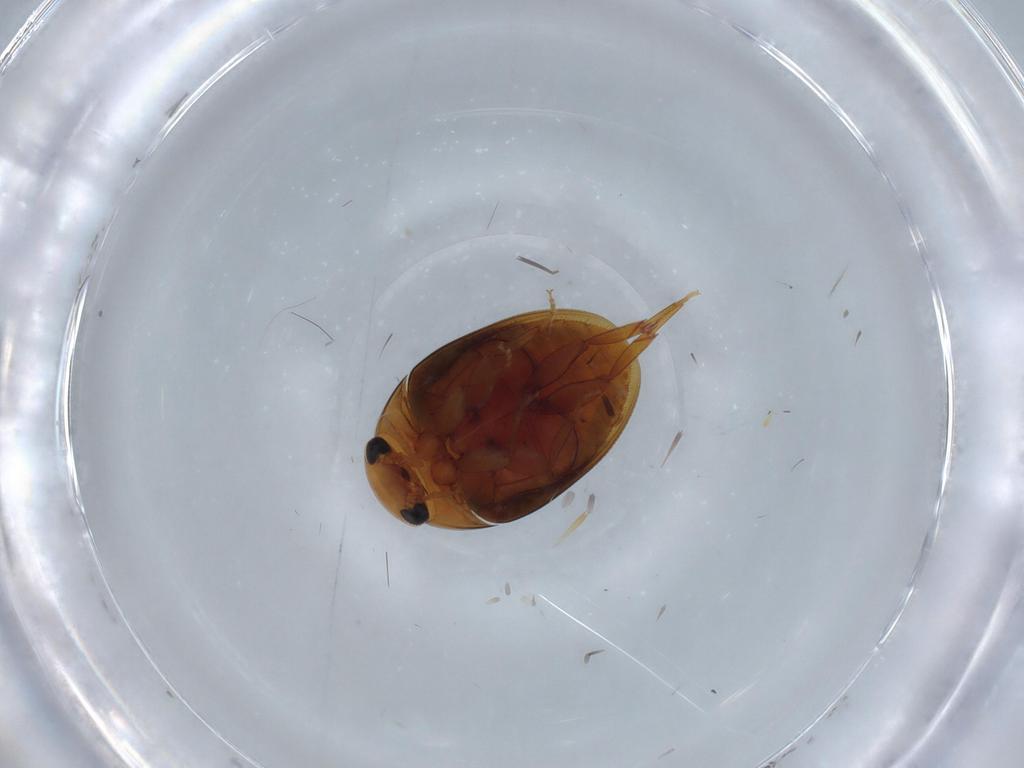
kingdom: Animalia
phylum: Arthropoda
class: Insecta
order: Coleoptera
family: Phalacridae
